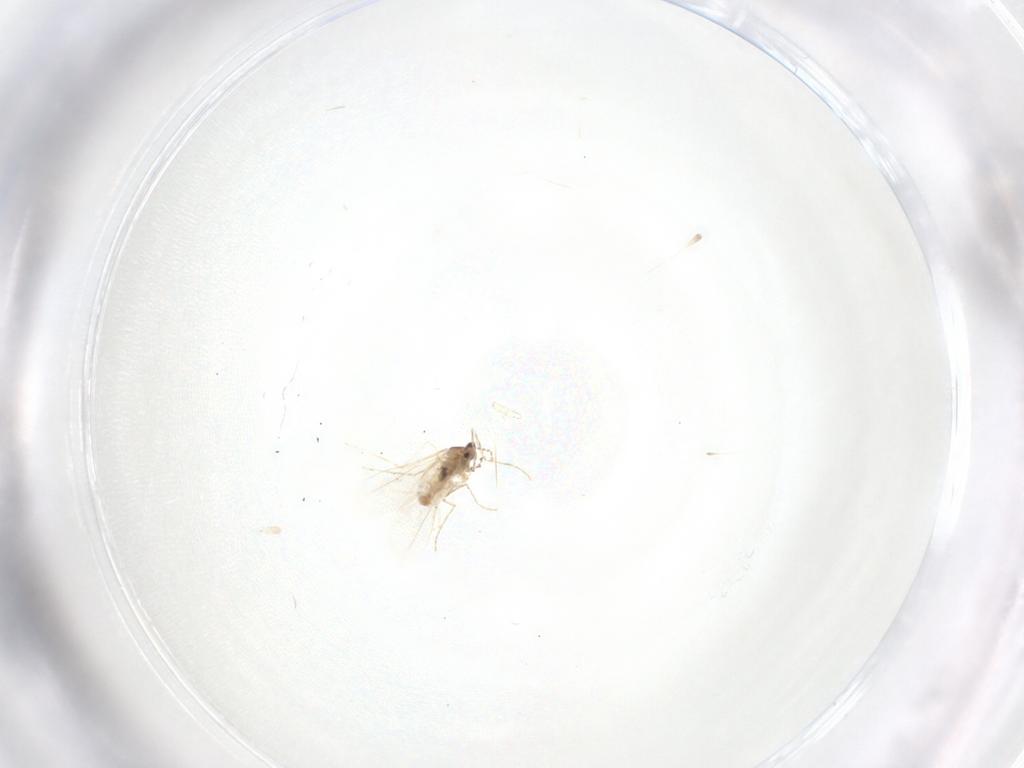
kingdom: Animalia
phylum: Arthropoda
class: Insecta
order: Diptera
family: Cecidomyiidae
